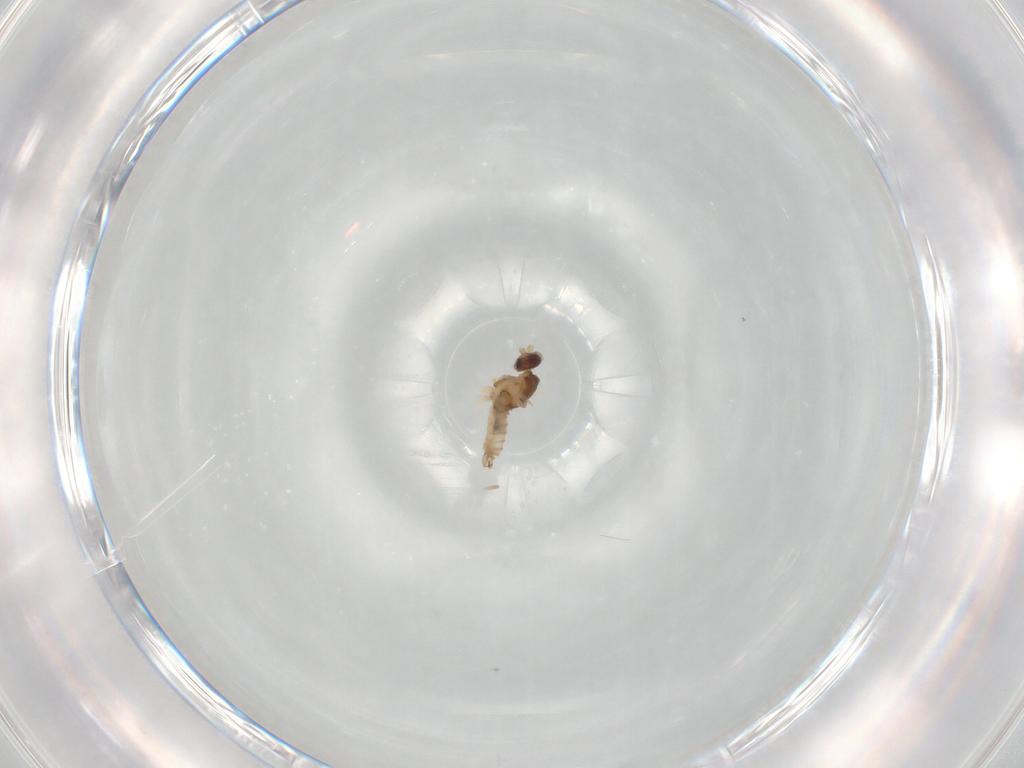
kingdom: Animalia
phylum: Arthropoda
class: Insecta
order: Diptera
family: Cecidomyiidae
